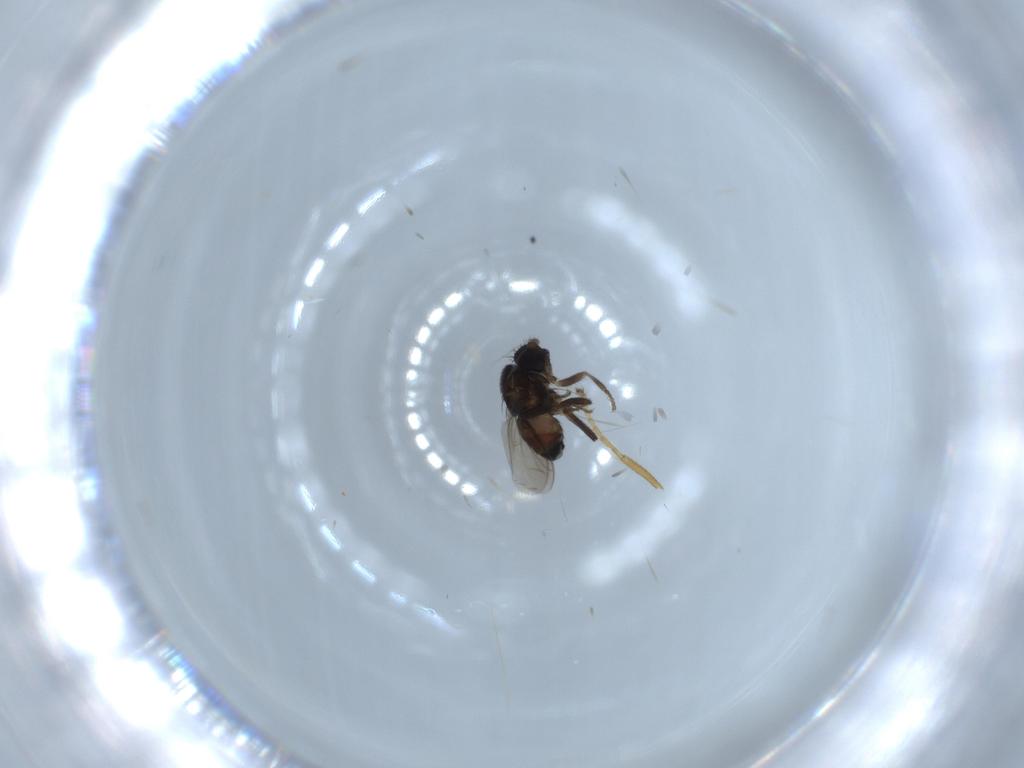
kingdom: Animalia
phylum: Arthropoda
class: Insecta
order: Diptera
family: Sphaeroceridae
